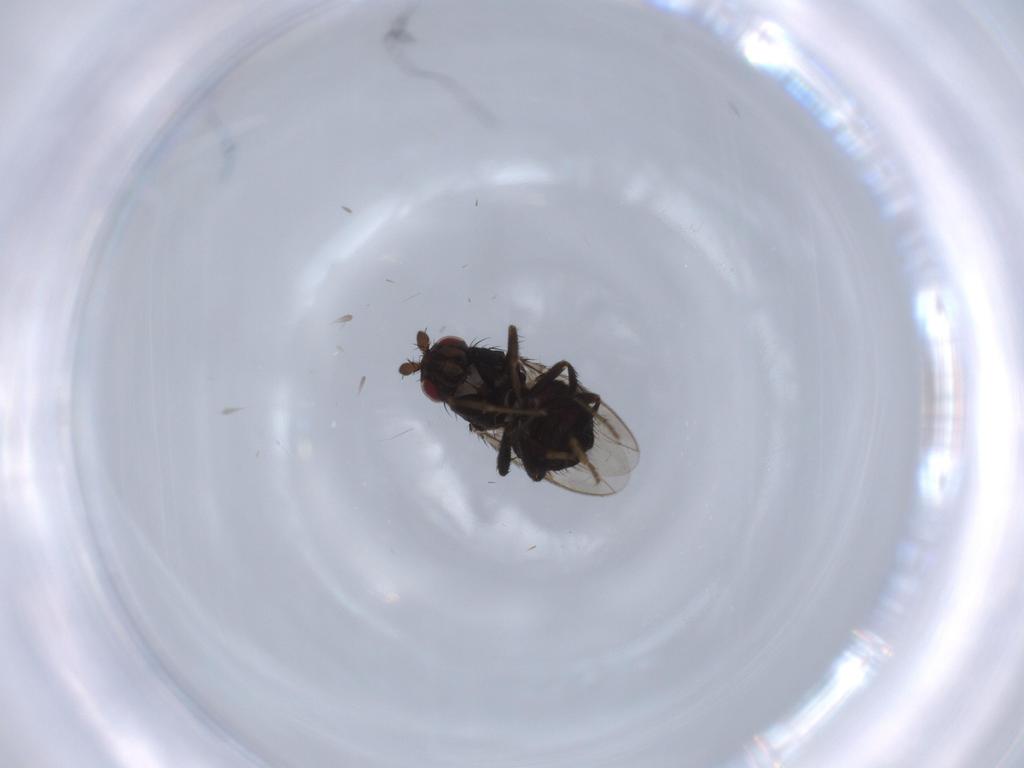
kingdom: Animalia
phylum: Arthropoda
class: Insecta
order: Diptera
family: Sphaeroceridae
